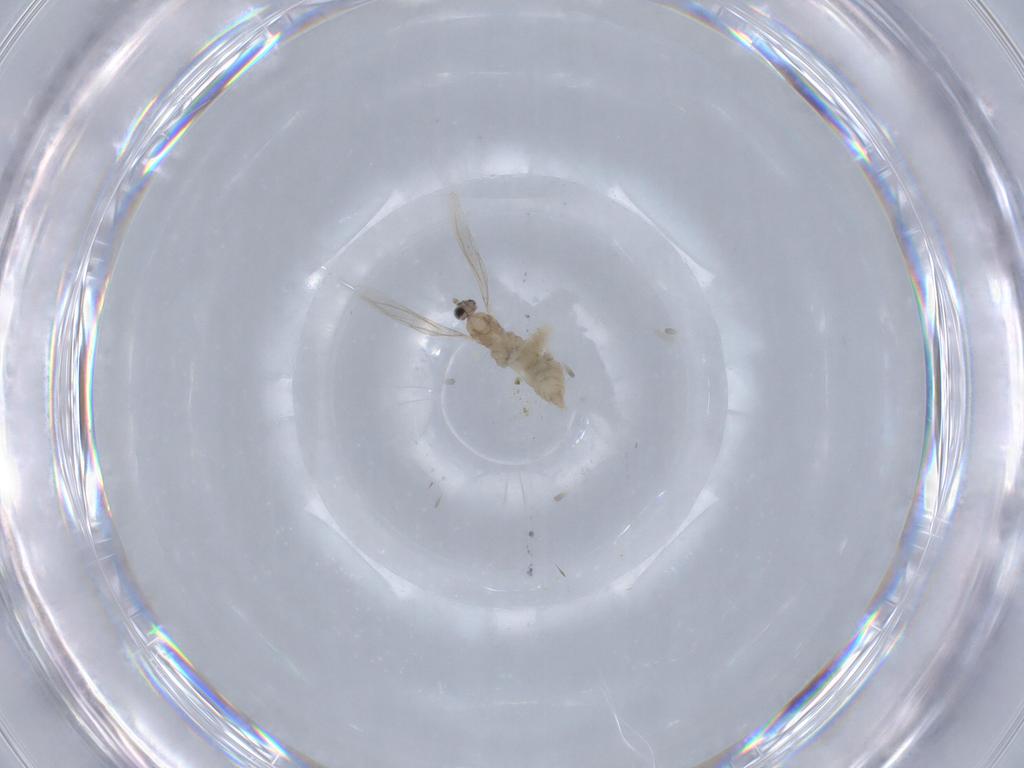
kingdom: Animalia
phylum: Arthropoda
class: Insecta
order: Diptera
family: Cecidomyiidae
